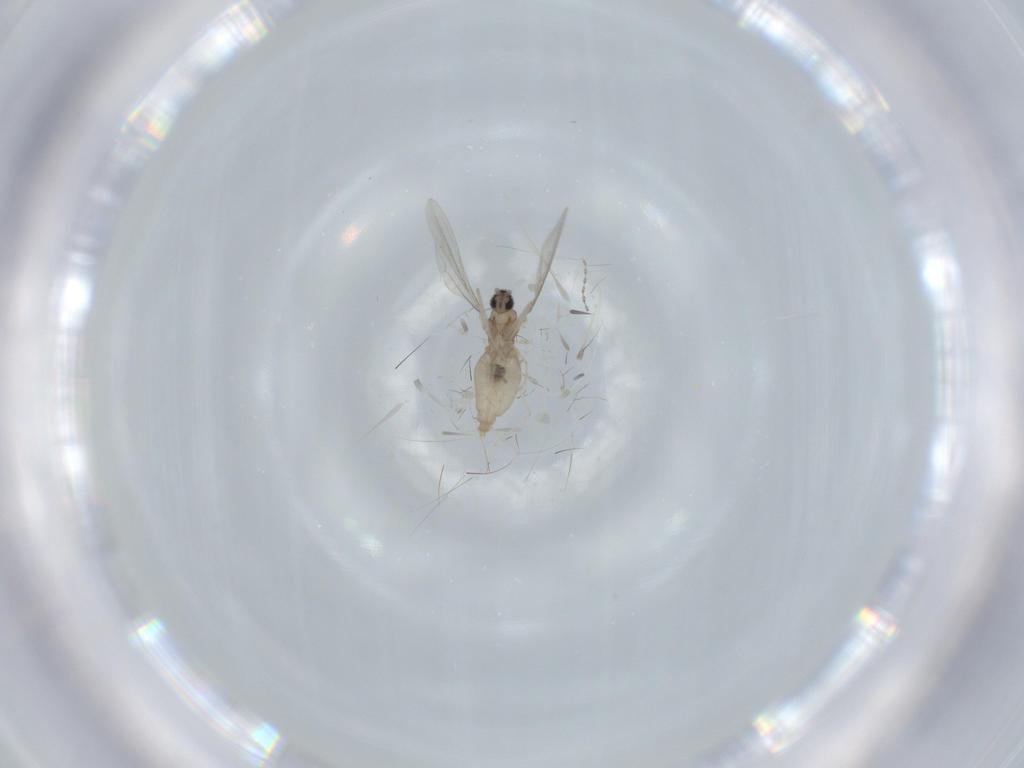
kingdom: Animalia
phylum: Arthropoda
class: Insecta
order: Diptera
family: Cecidomyiidae
